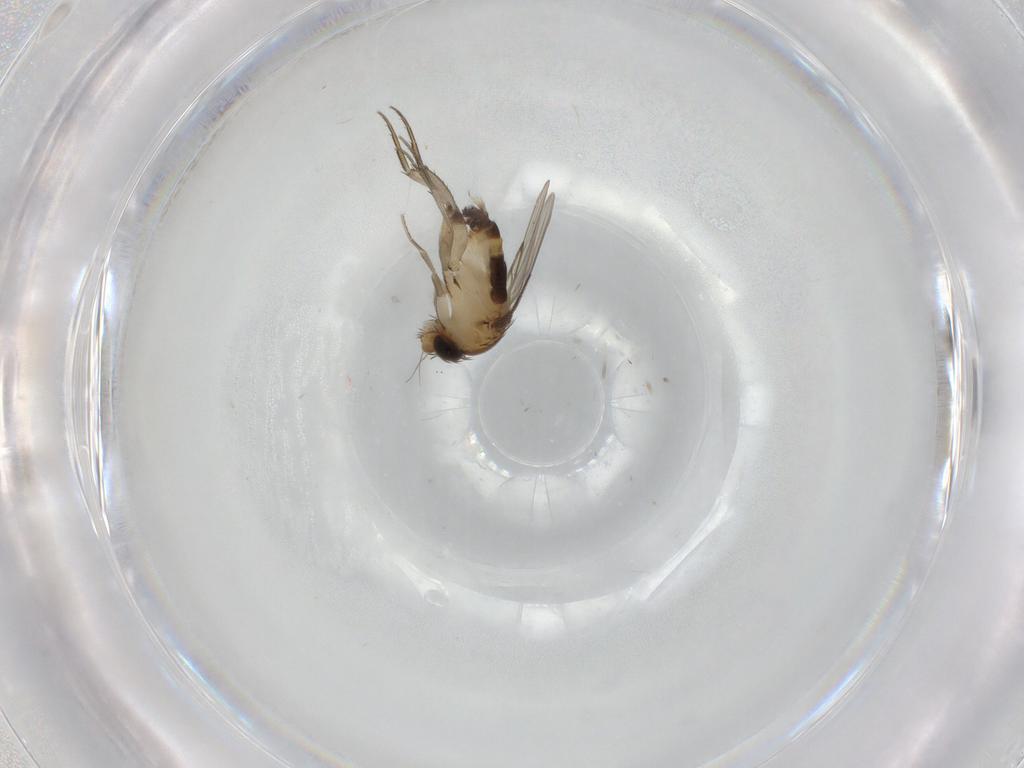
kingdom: Animalia
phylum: Arthropoda
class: Insecta
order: Diptera
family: Phoridae
